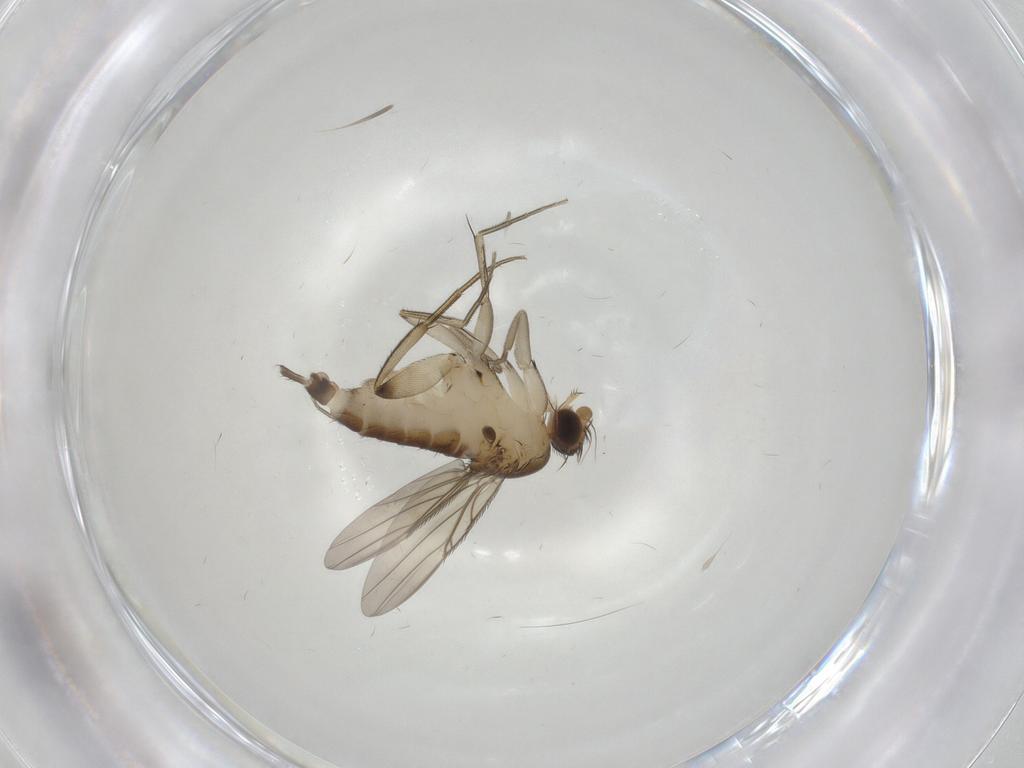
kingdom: Animalia
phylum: Arthropoda
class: Insecta
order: Diptera
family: Phoridae
